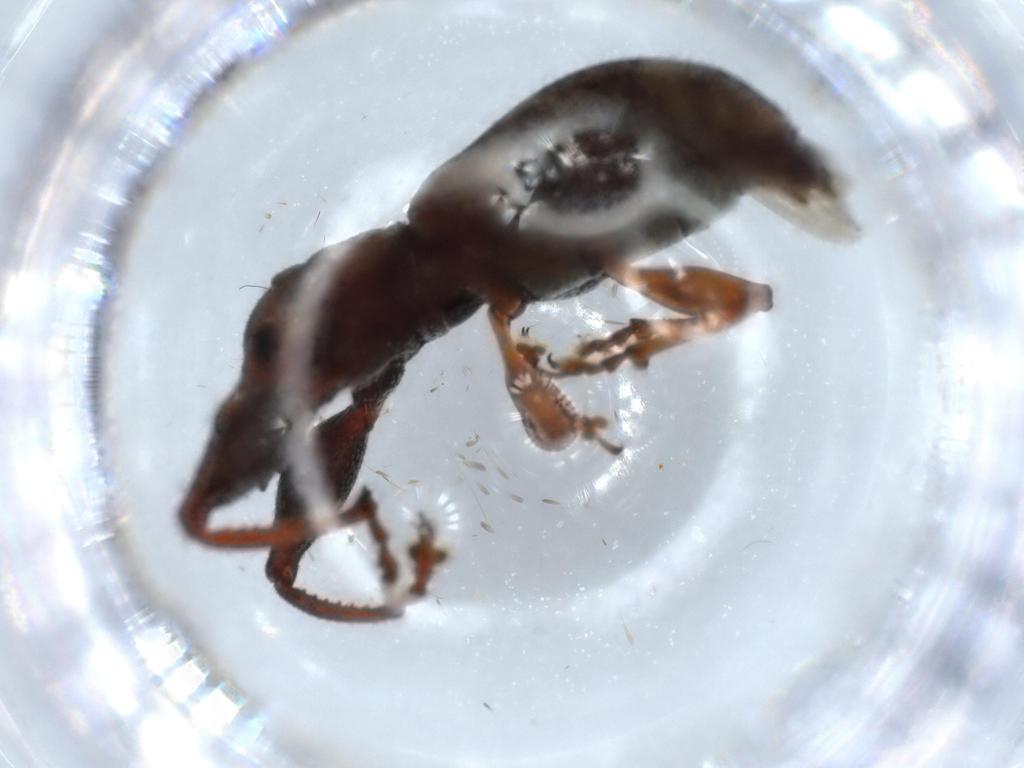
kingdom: Animalia
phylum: Arthropoda
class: Insecta
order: Coleoptera
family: Curculionidae
